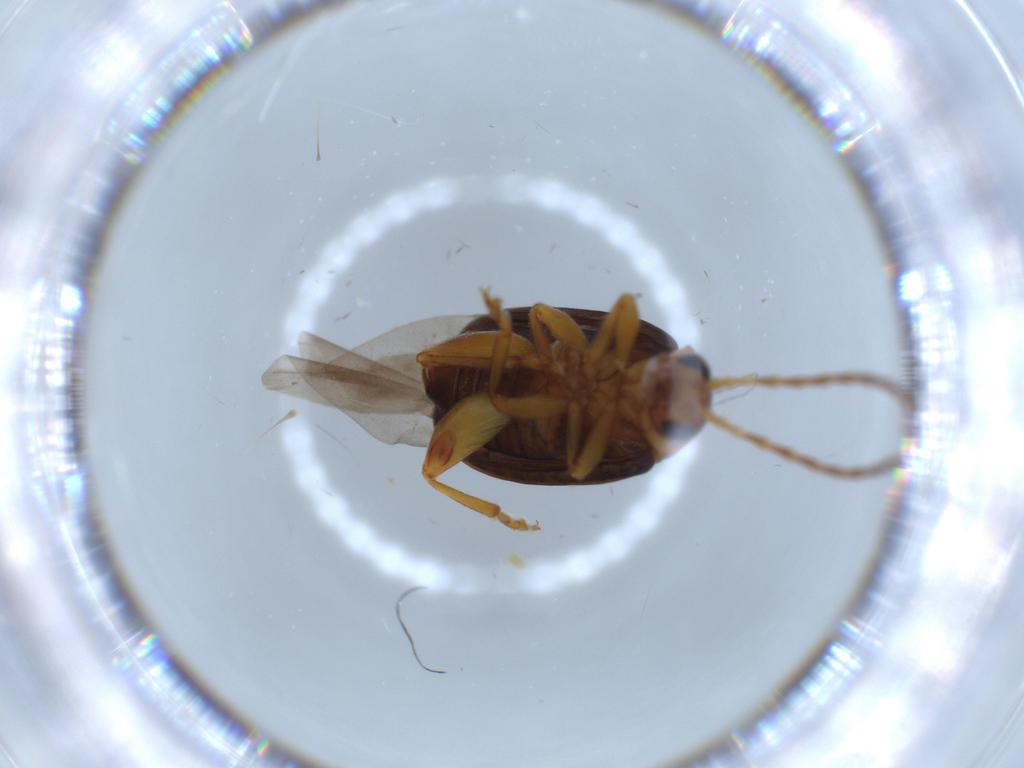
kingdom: Animalia
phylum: Arthropoda
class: Insecta
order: Coleoptera
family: Chrysomelidae
